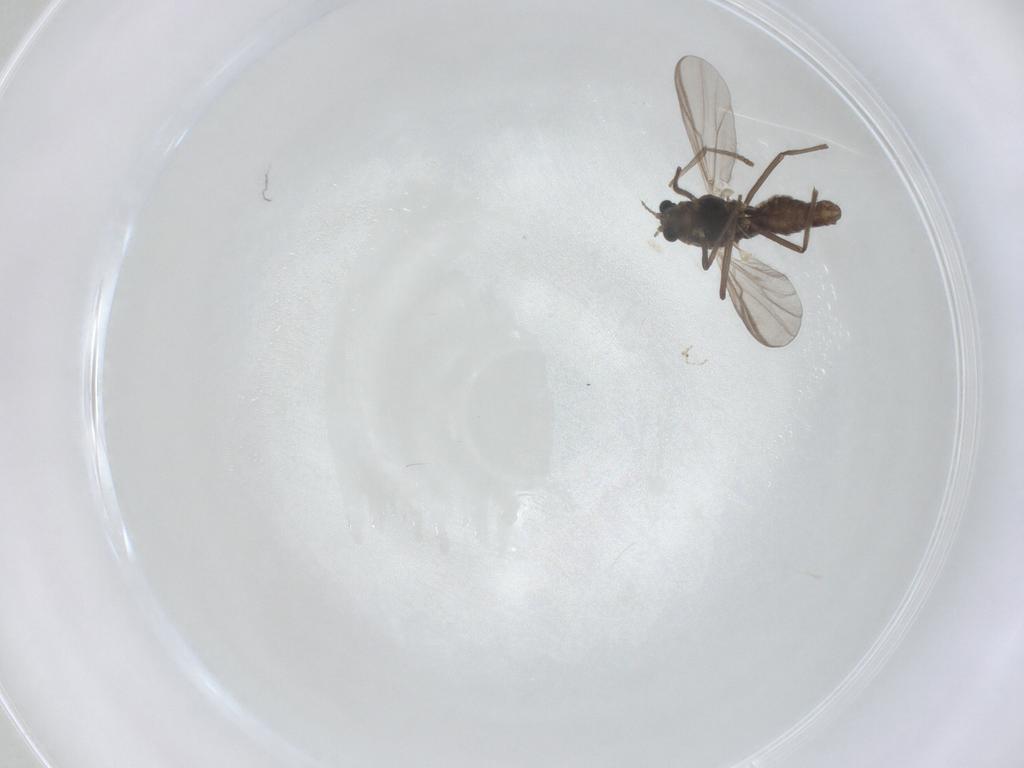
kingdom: Animalia
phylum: Arthropoda
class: Insecta
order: Diptera
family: Chironomidae
